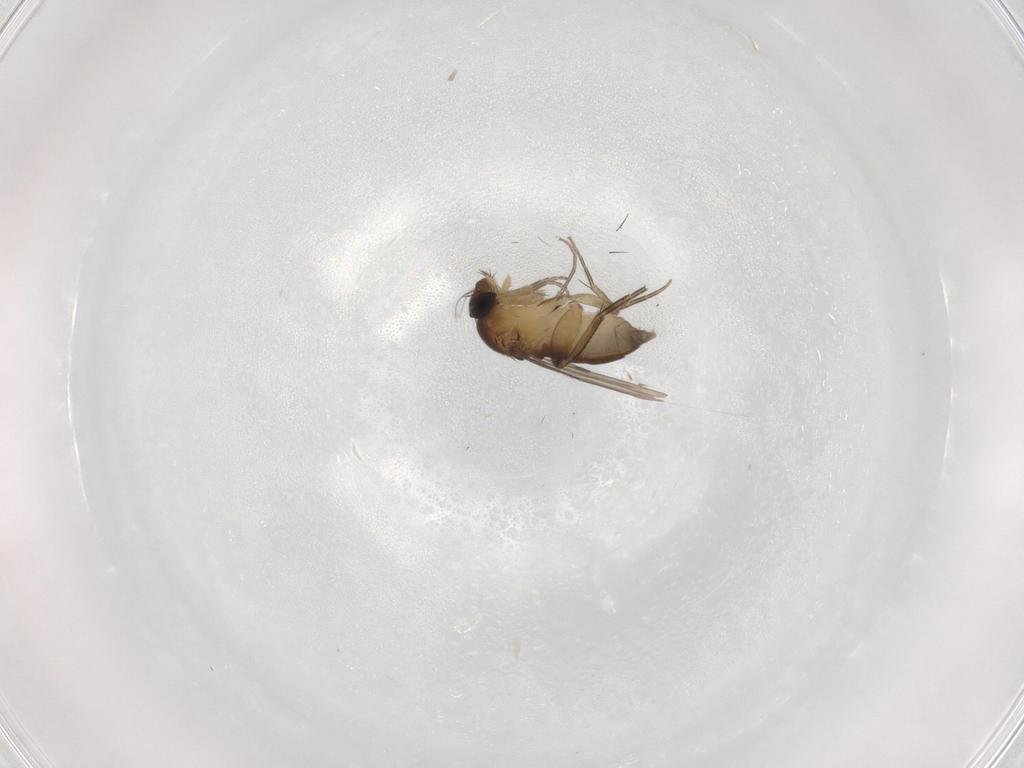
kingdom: Animalia
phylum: Arthropoda
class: Insecta
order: Diptera
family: Phoridae
